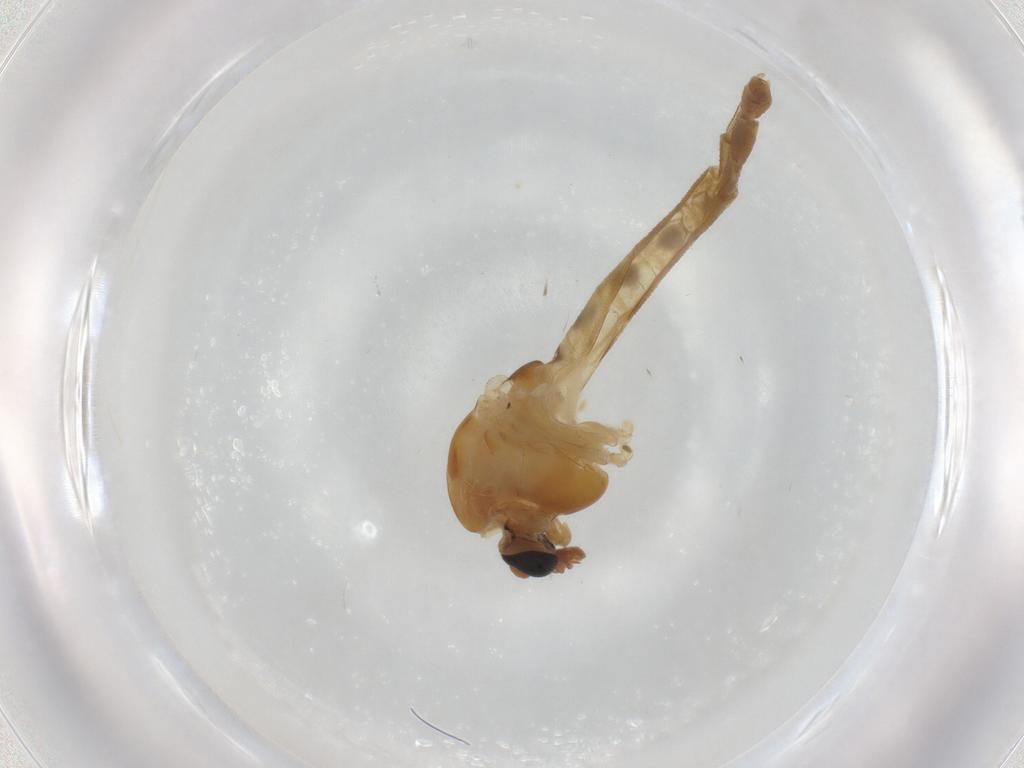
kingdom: Animalia
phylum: Arthropoda
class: Insecta
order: Diptera
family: Chironomidae
